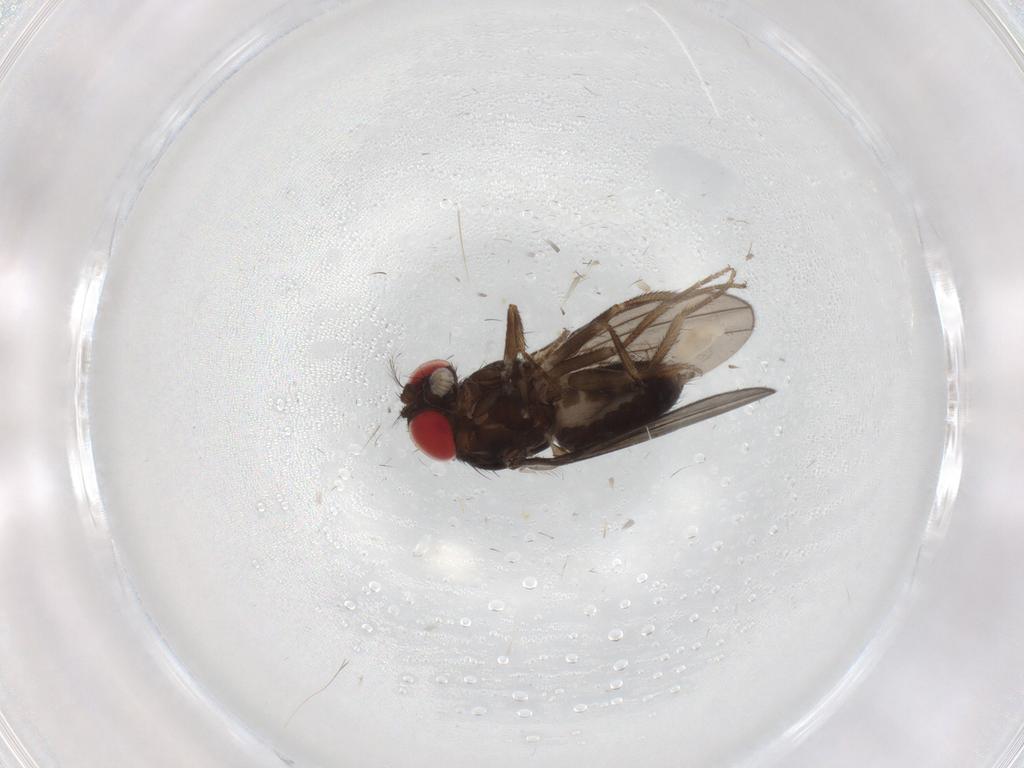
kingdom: Animalia
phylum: Arthropoda
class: Insecta
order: Diptera
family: Drosophilidae
